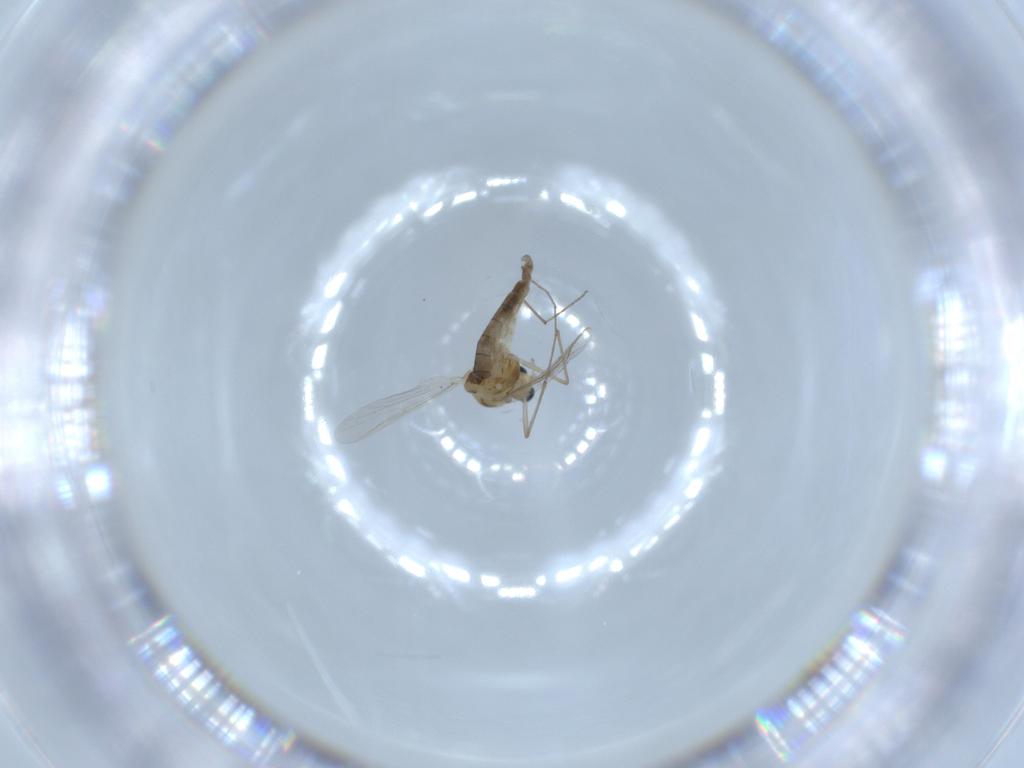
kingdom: Animalia
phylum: Arthropoda
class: Insecta
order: Diptera
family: Chironomidae
